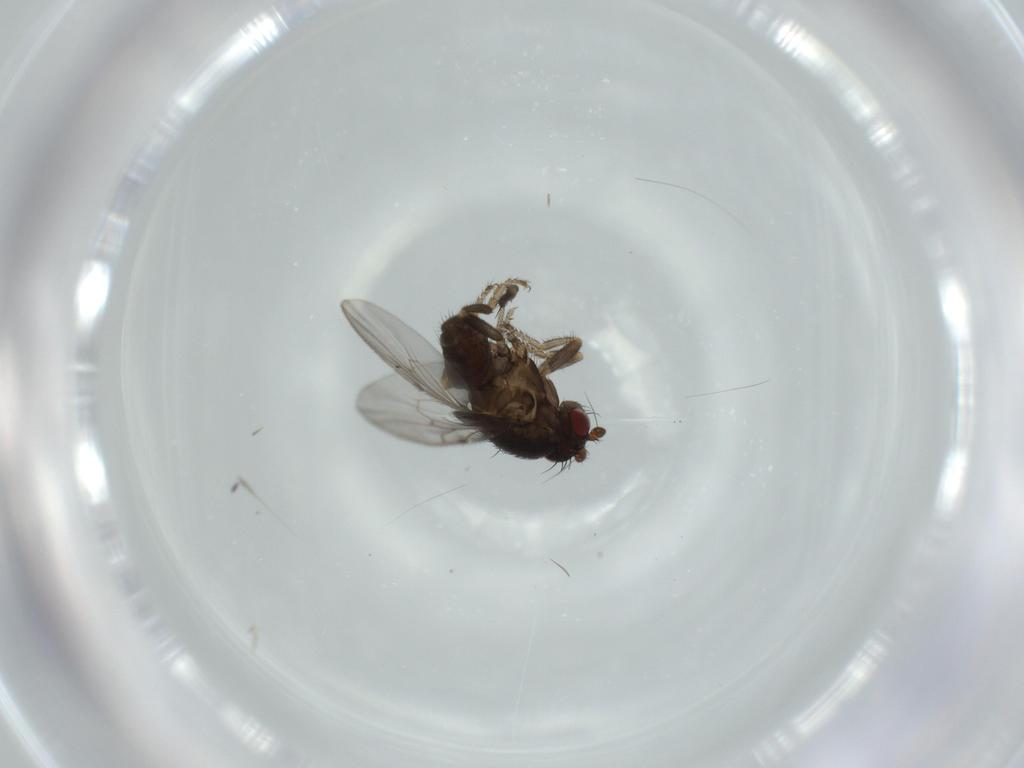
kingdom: Animalia
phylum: Arthropoda
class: Insecta
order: Diptera
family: Sphaeroceridae
